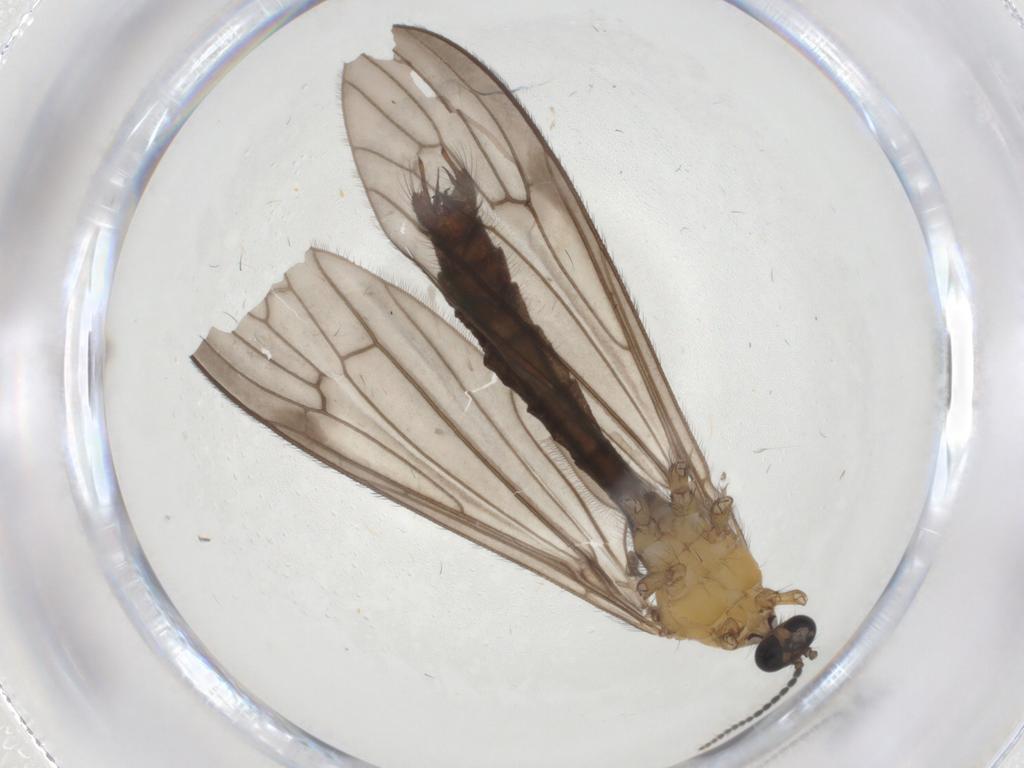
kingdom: Animalia
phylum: Arthropoda
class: Insecta
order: Diptera
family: Limoniidae
